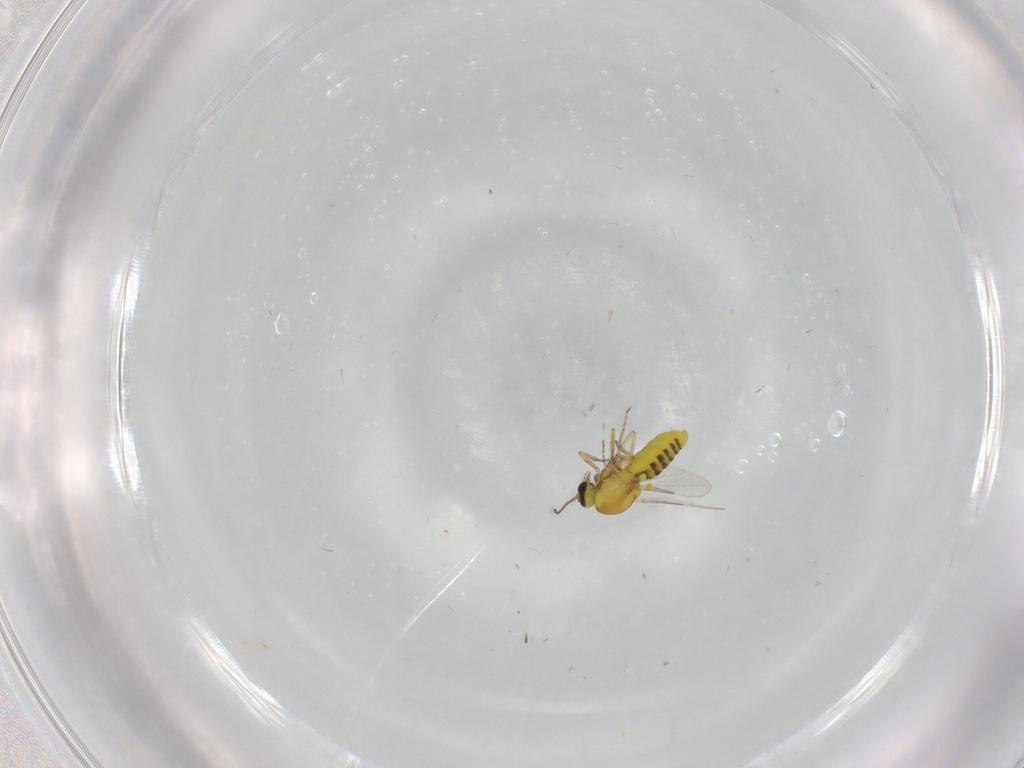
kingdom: Animalia
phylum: Arthropoda
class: Insecta
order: Diptera
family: Ceratopogonidae
